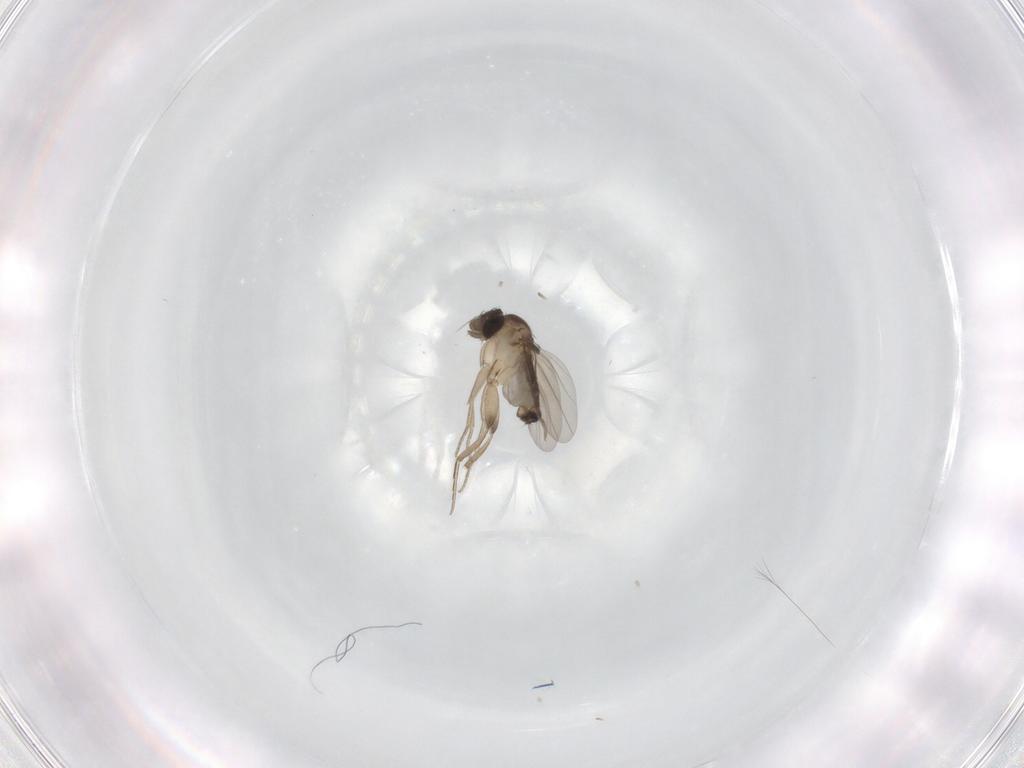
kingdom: Animalia
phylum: Arthropoda
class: Insecta
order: Diptera
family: Phoridae
